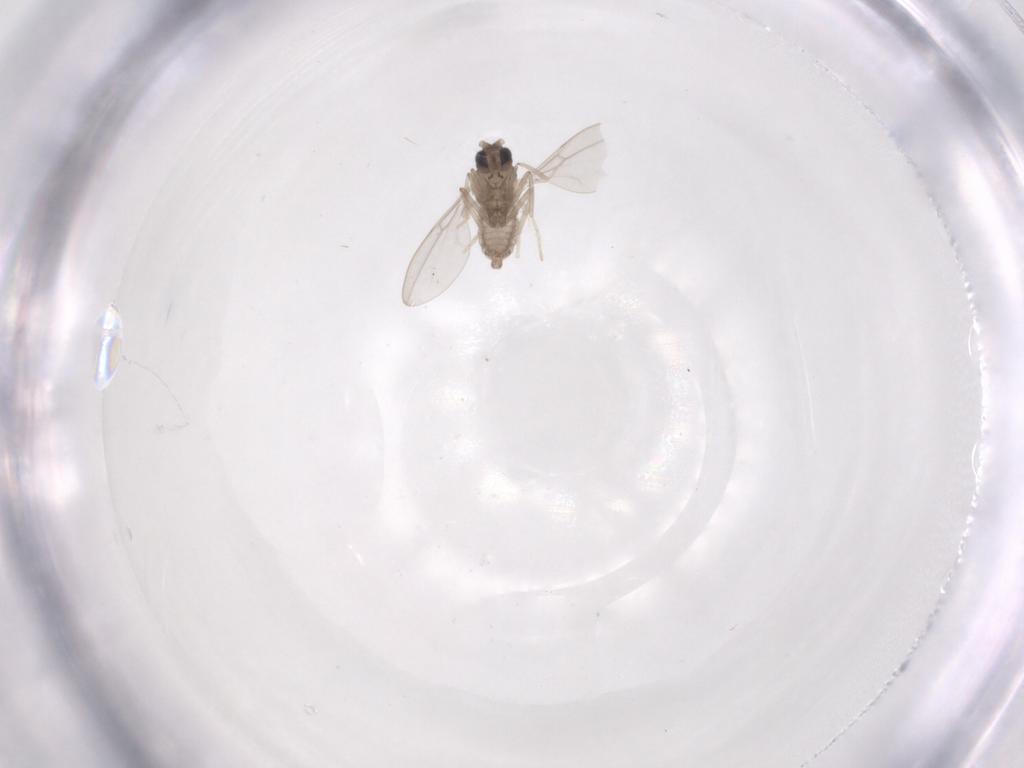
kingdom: Animalia
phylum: Arthropoda
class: Insecta
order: Diptera
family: Cecidomyiidae
